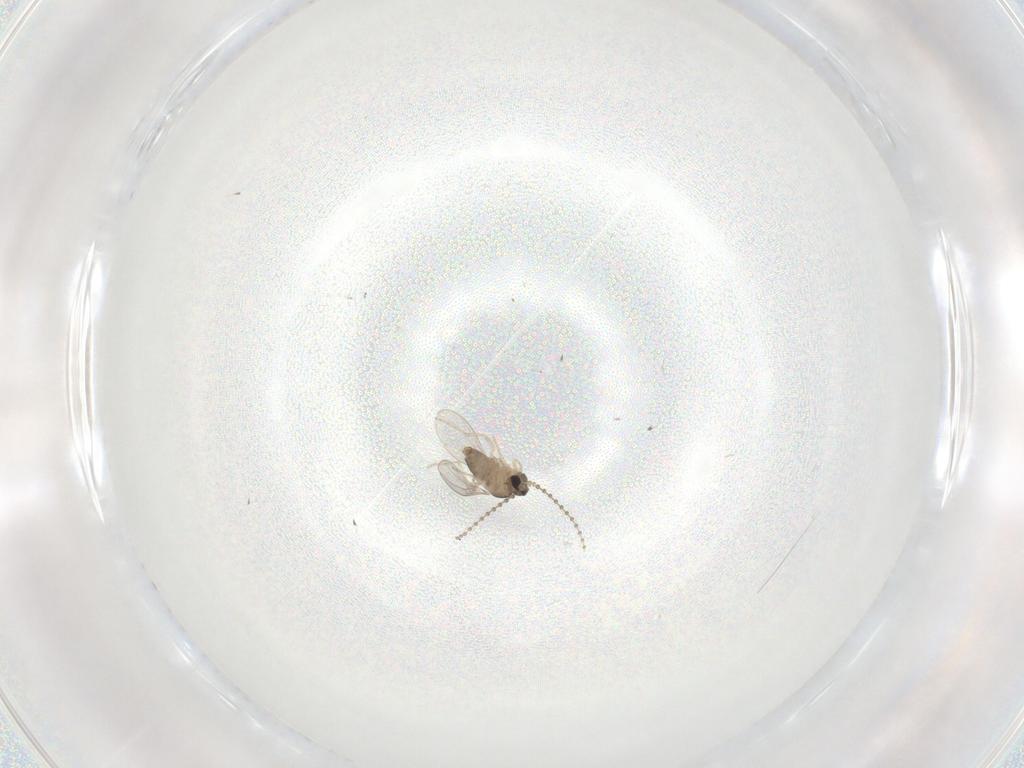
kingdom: Animalia
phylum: Arthropoda
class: Insecta
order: Diptera
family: Cecidomyiidae
